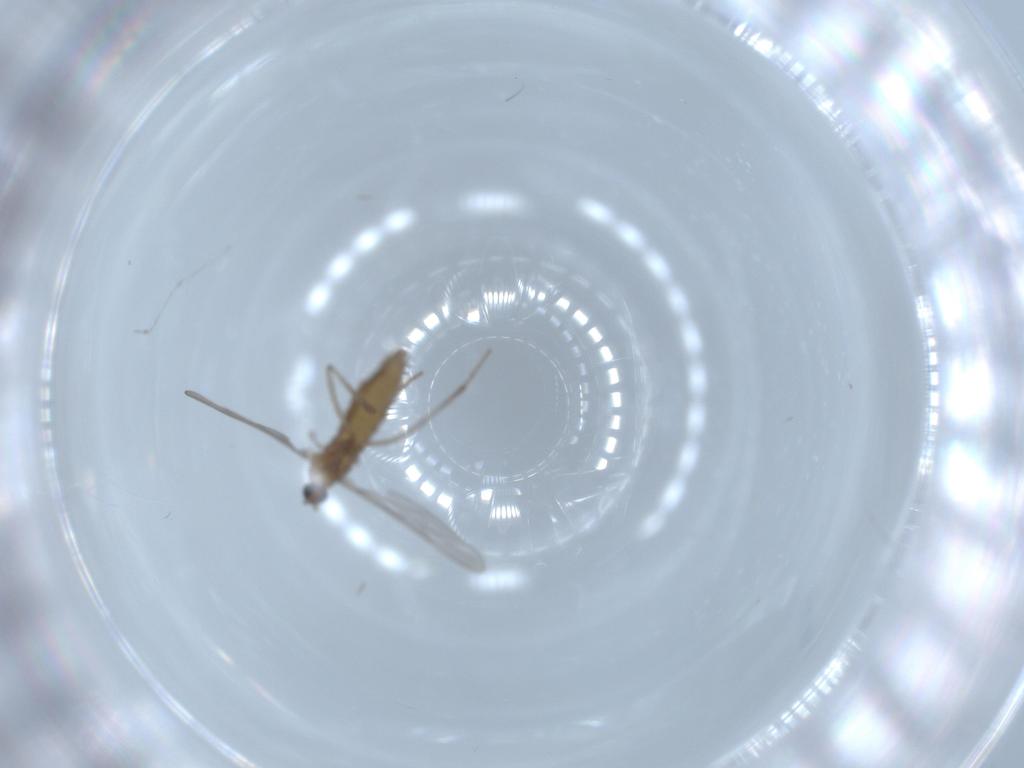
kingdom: Animalia
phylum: Arthropoda
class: Insecta
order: Diptera
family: Cecidomyiidae
